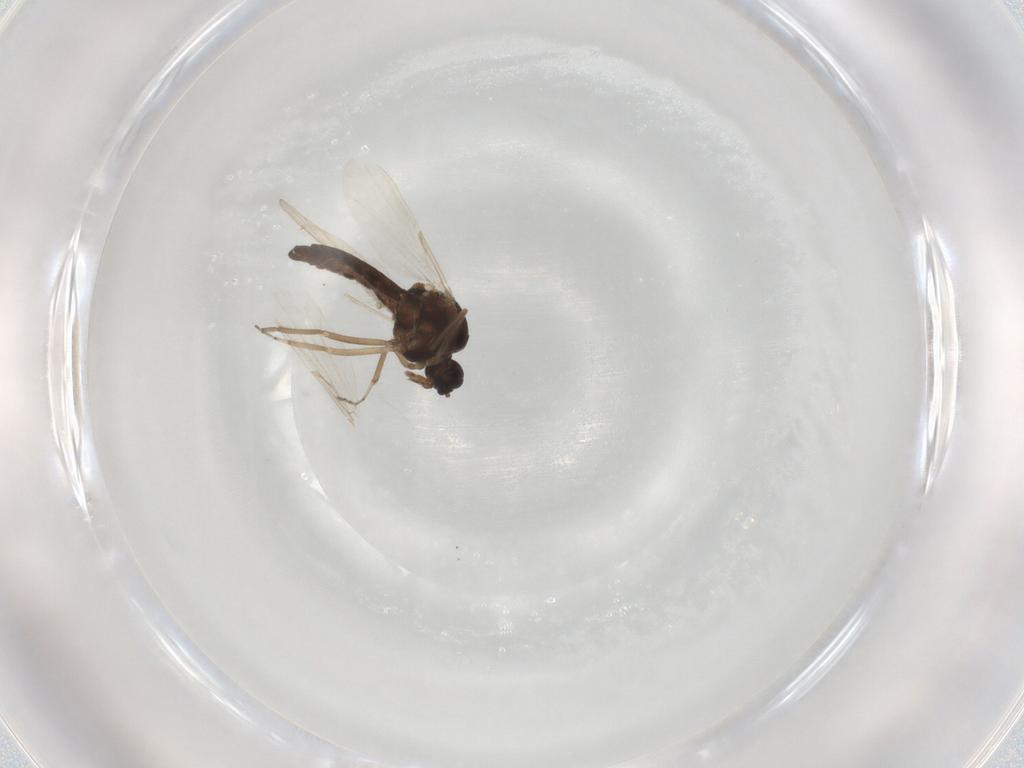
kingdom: Animalia
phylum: Arthropoda
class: Insecta
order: Diptera
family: Ceratopogonidae
